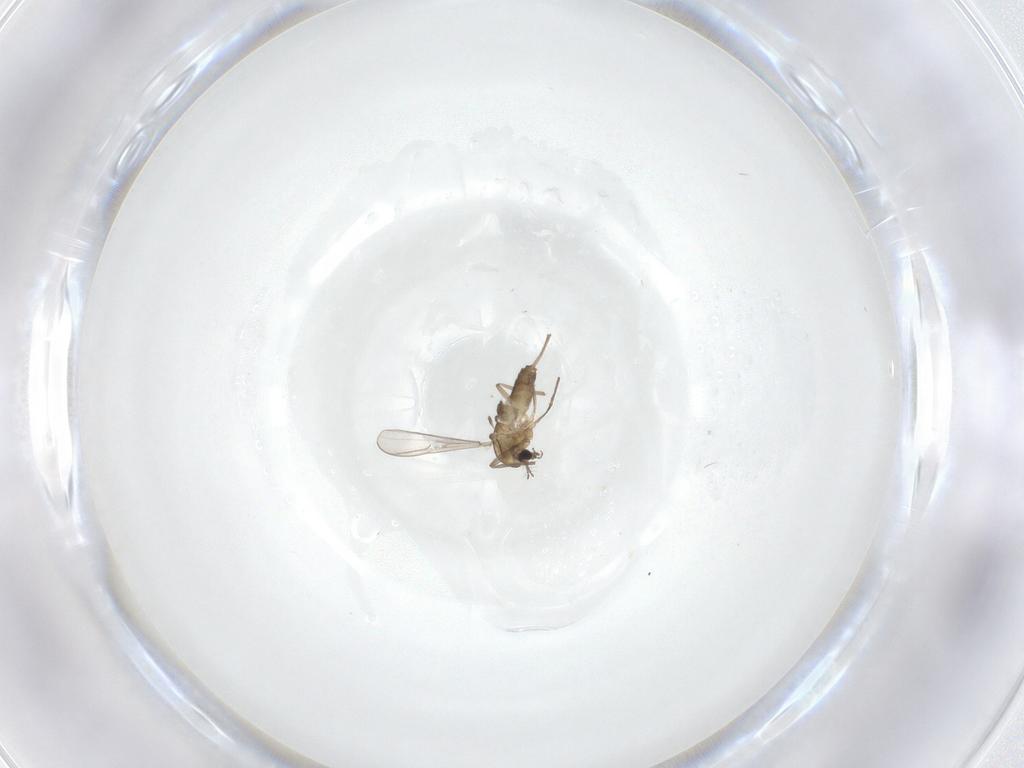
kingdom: Animalia
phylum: Arthropoda
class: Insecta
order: Diptera
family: Chironomidae
